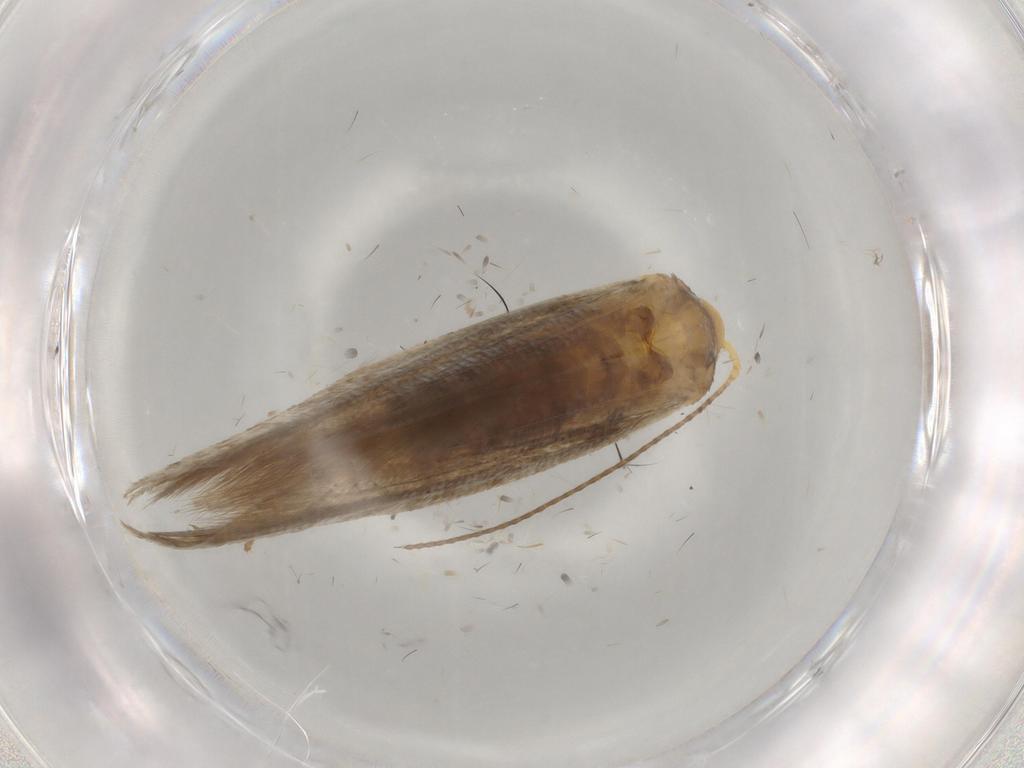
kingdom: Animalia
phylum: Arthropoda
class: Insecta
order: Lepidoptera
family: Argyresthiidae
